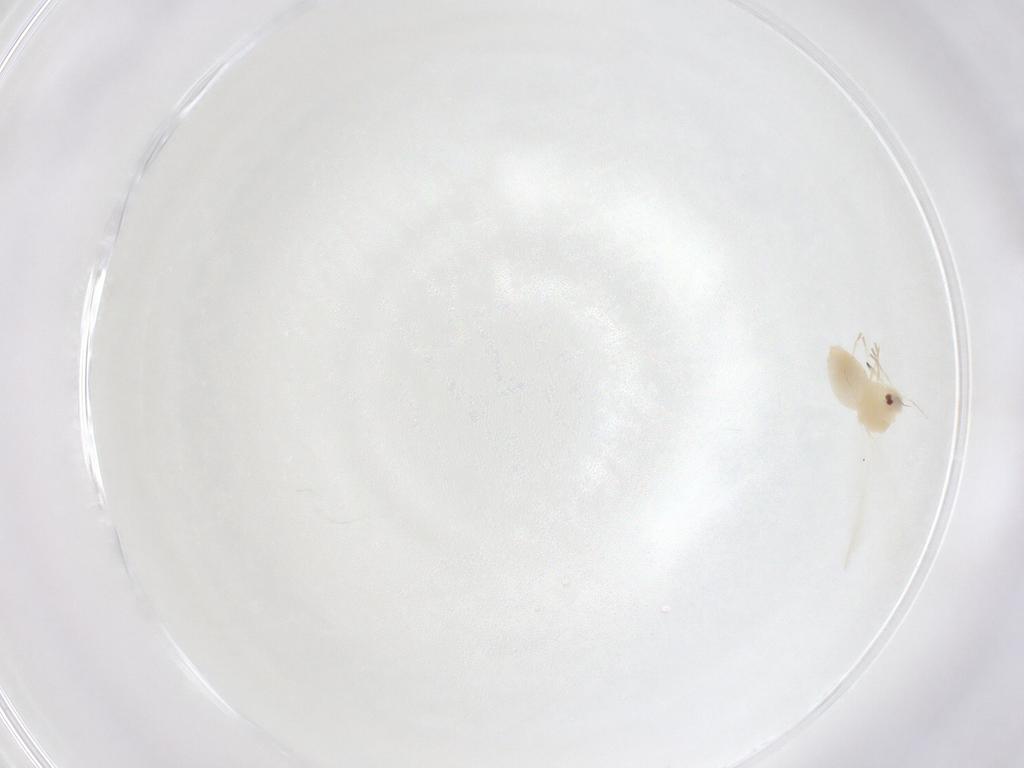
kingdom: Animalia
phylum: Arthropoda
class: Insecta
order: Hemiptera
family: Aleyrodidae
